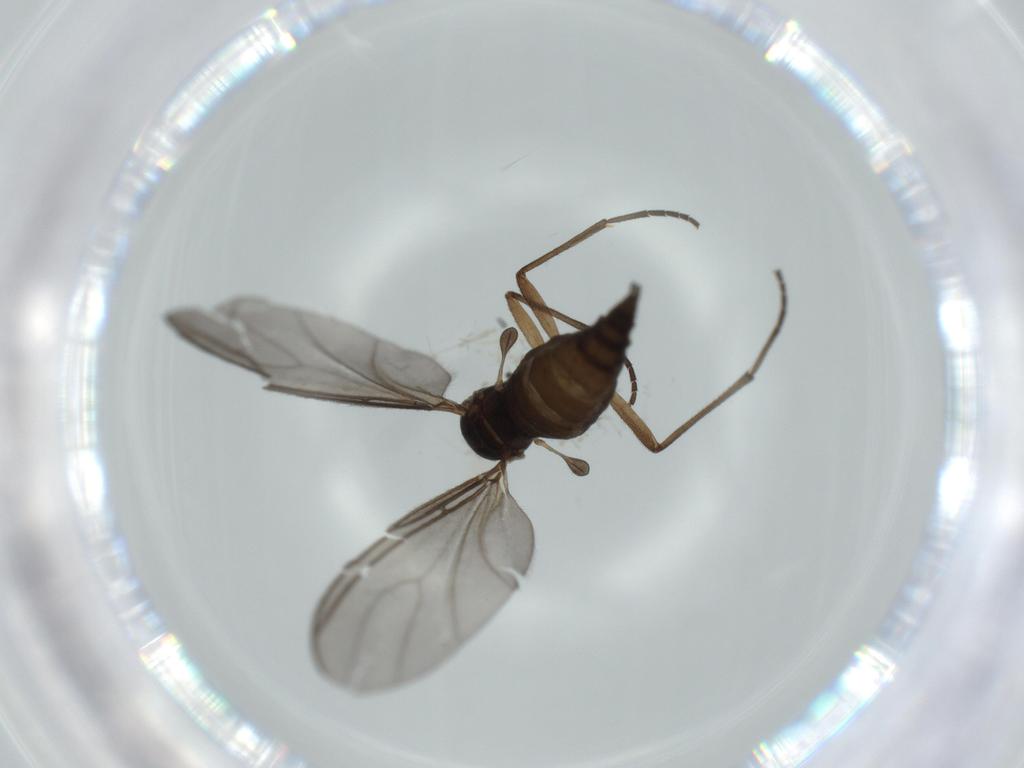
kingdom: Animalia
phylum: Arthropoda
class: Insecta
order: Diptera
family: Sciaridae
